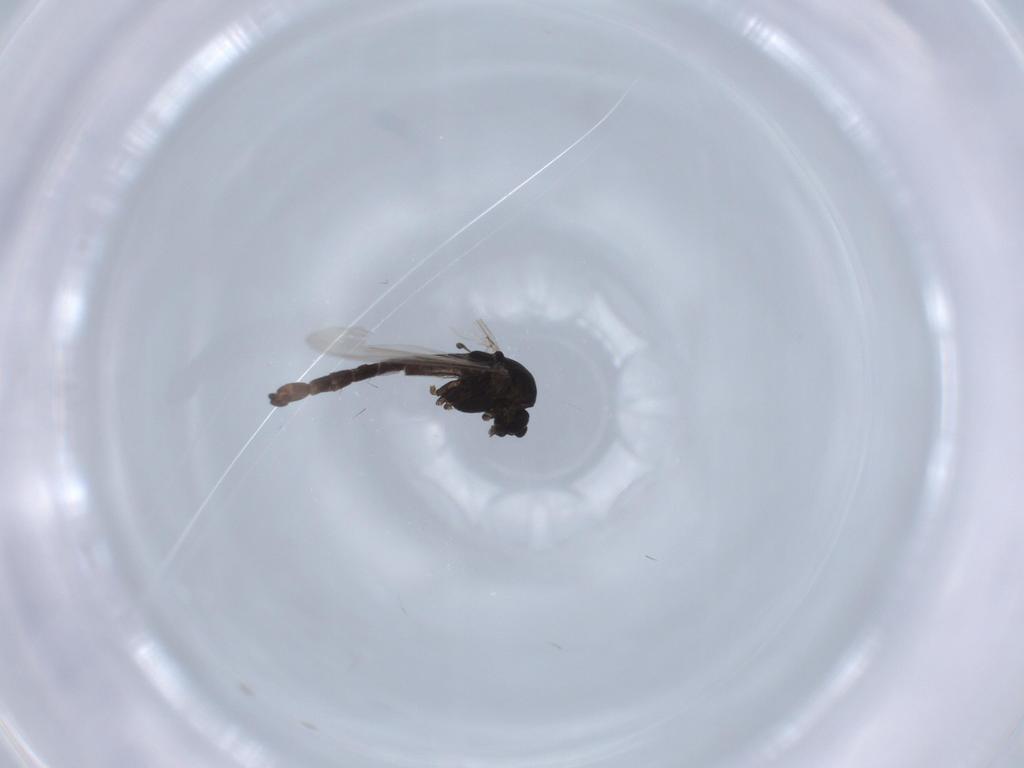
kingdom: Animalia
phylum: Arthropoda
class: Insecta
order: Diptera
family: Chironomidae
